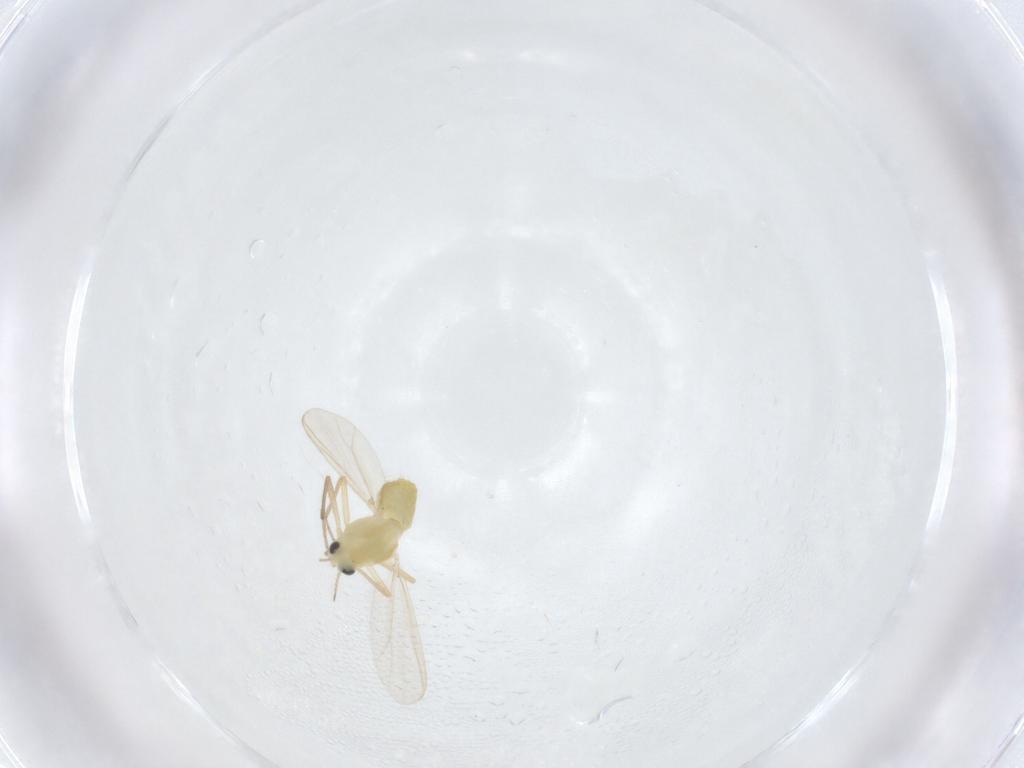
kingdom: Animalia
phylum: Arthropoda
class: Insecta
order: Diptera
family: Chironomidae
